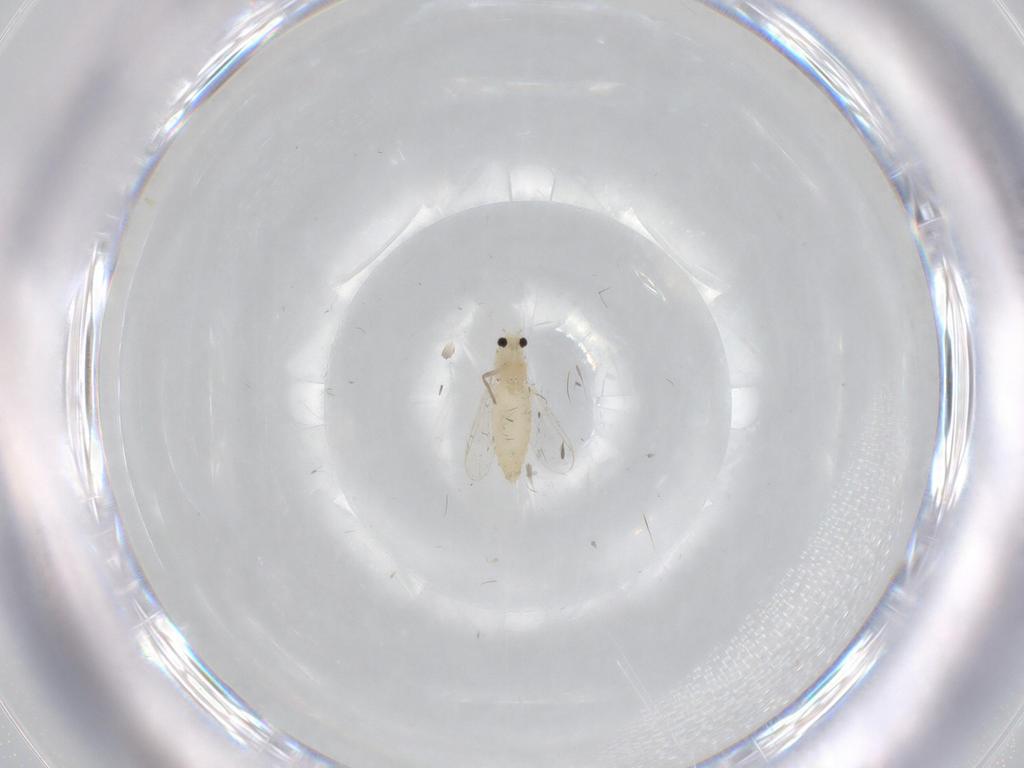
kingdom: Animalia
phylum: Arthropoda
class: Insecta
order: Diptera
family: Chironomidae
